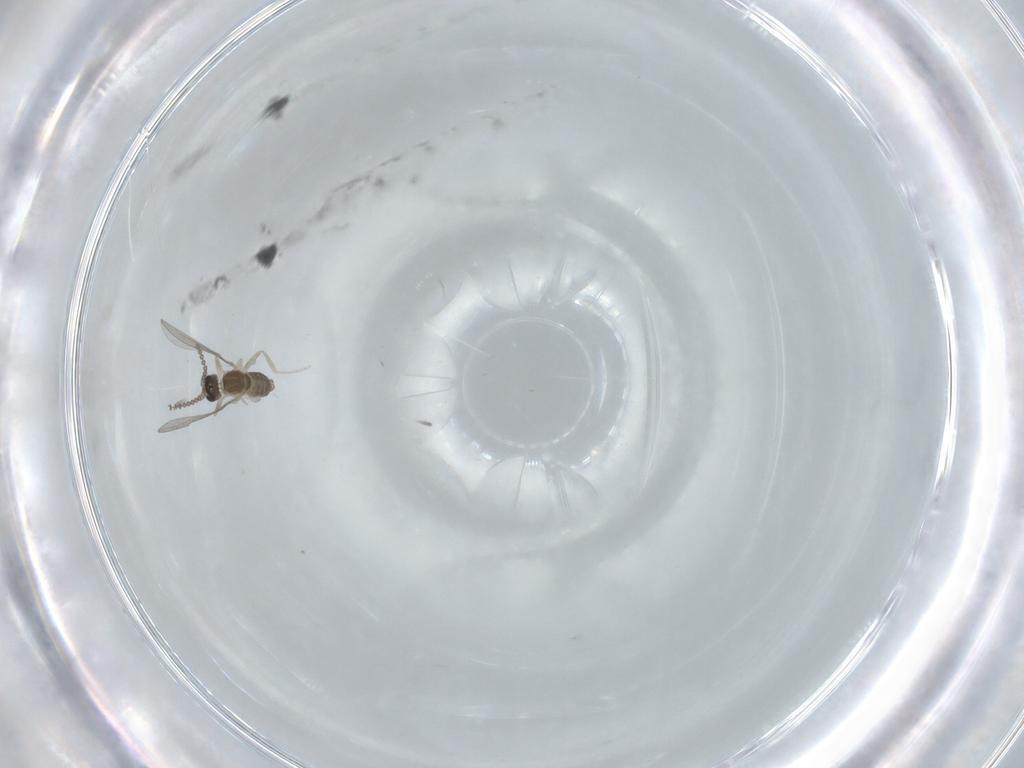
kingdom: Animalia
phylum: Arthropoda
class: Insecta
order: Diptera
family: Cecidomyiidae
